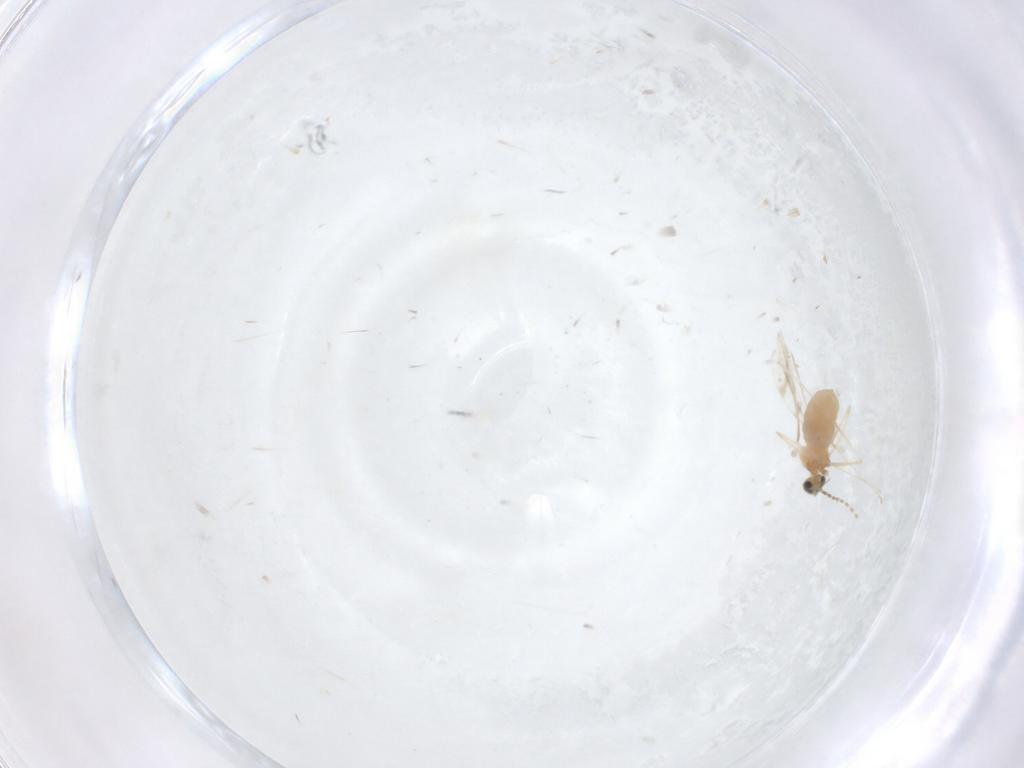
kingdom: Animalia
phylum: Arthropoda
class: Insecta
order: Diptera
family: Cecidomyiidae
